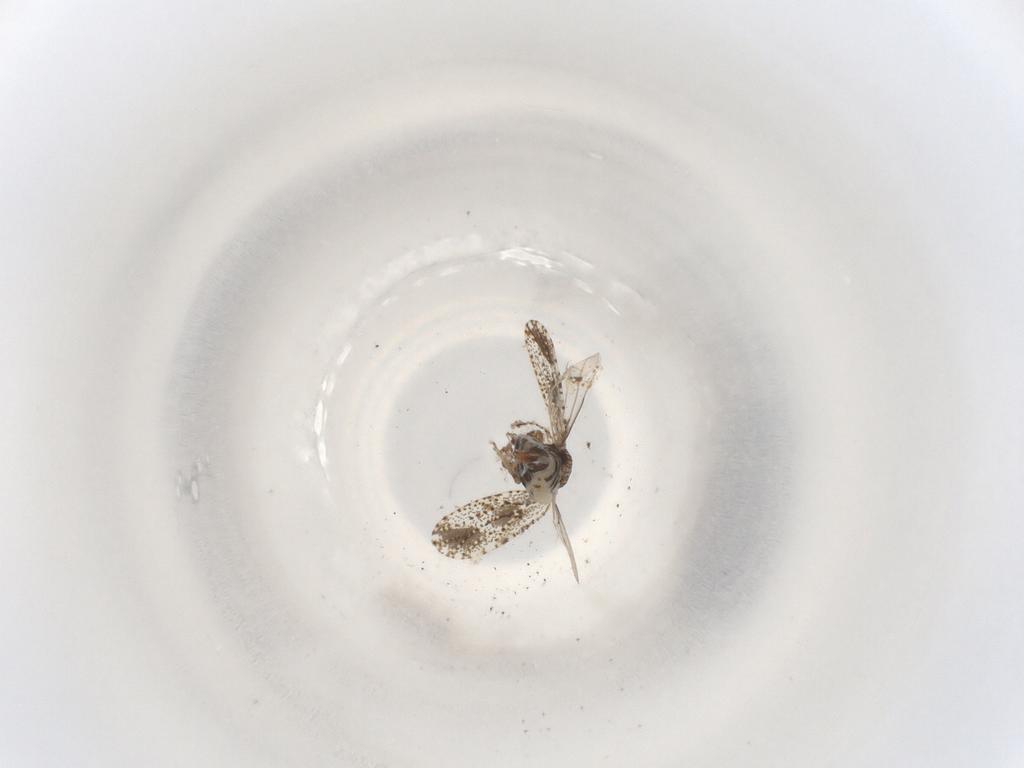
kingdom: Animalia
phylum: Arthropoda
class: Insecta
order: Blattodea
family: Ectobiidae
